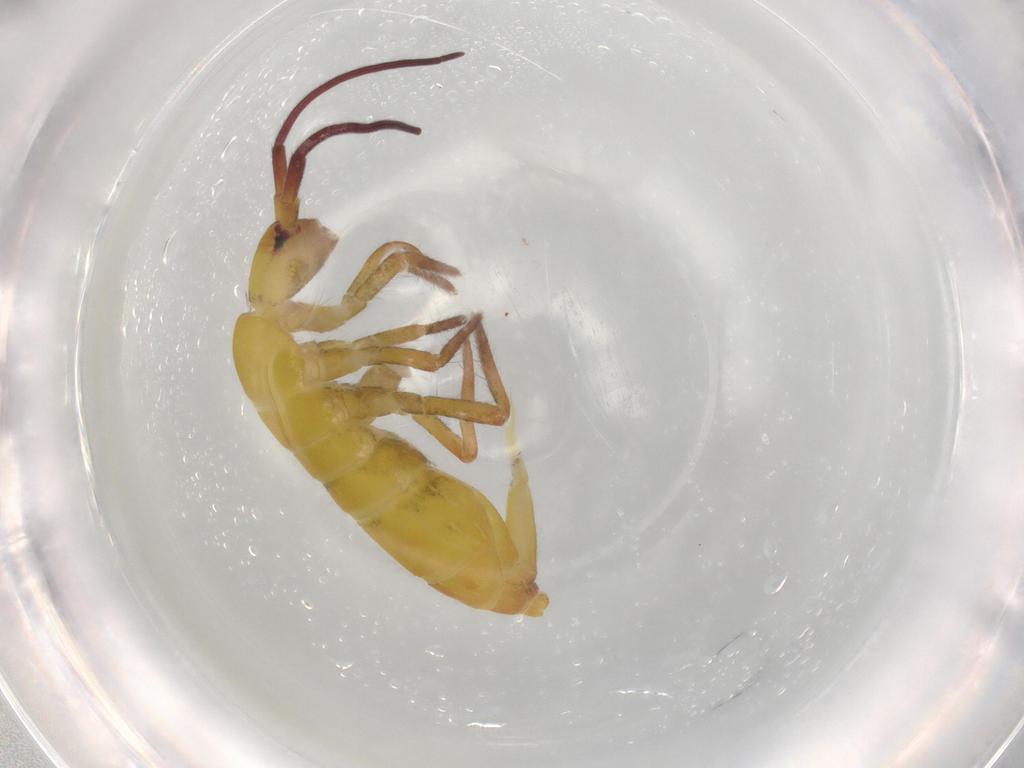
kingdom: Animalia
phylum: Arthropoda
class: Collembola
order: Entomobryomorpha
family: Tomoceridae
